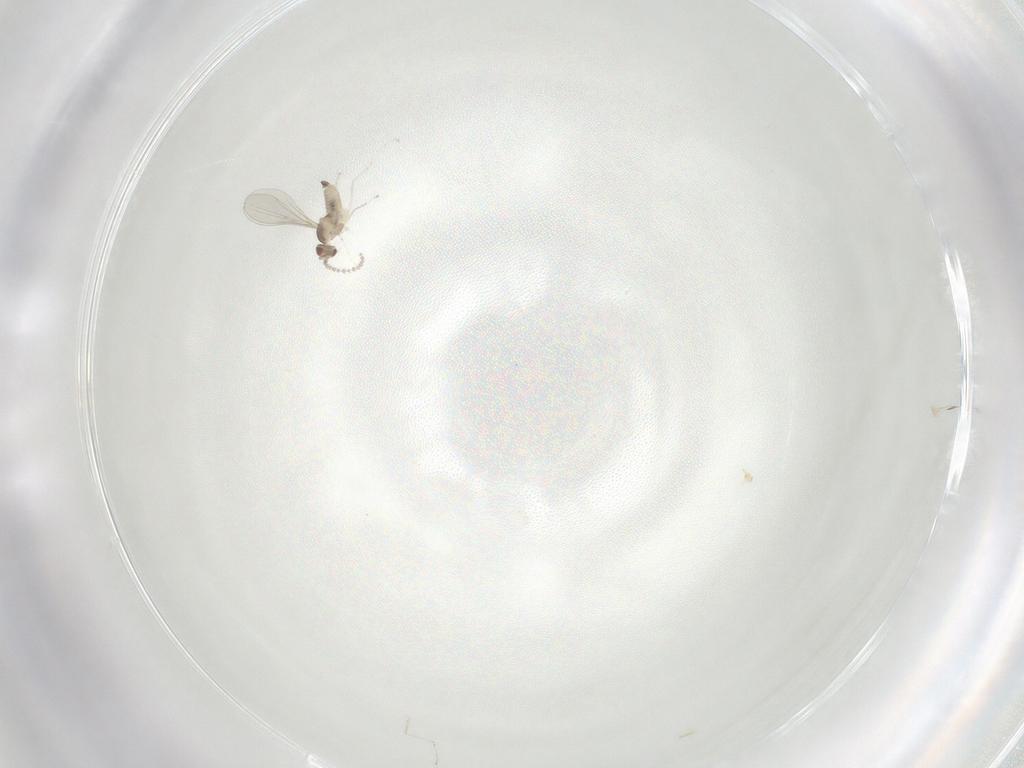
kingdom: Animalia
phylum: Arthropoda
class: Insecta
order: Diptera
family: Cecidomyiidae
